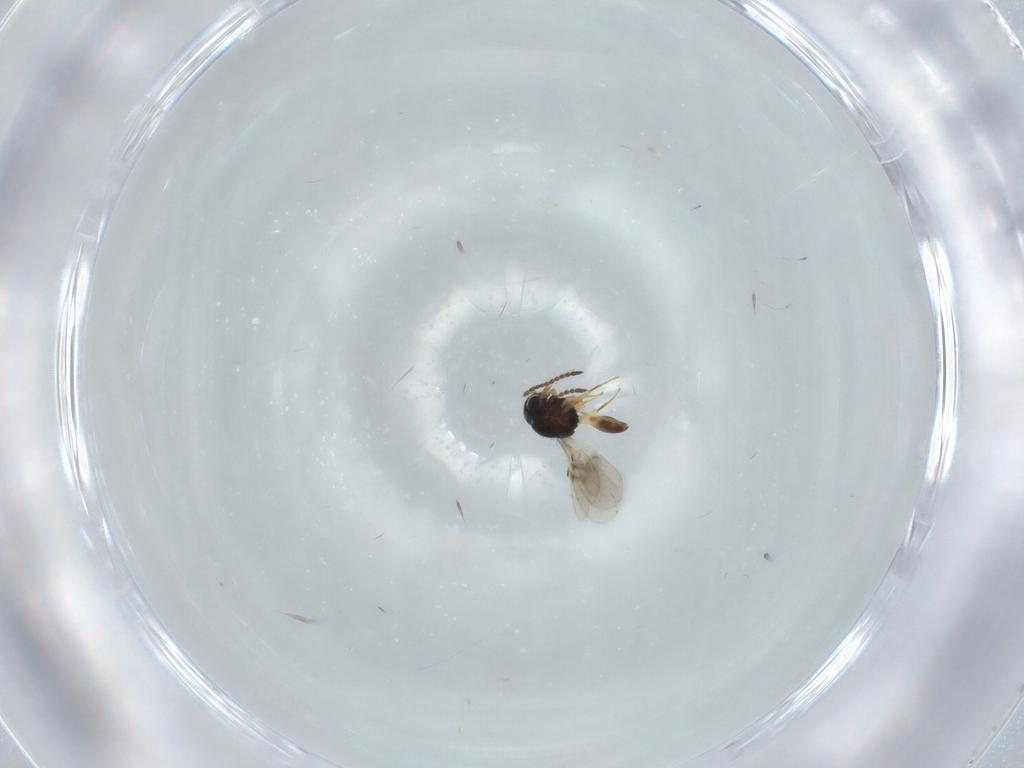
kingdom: Animalia
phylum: Arthropoda
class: Insecta
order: Hymenoptera
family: Scelionidae
